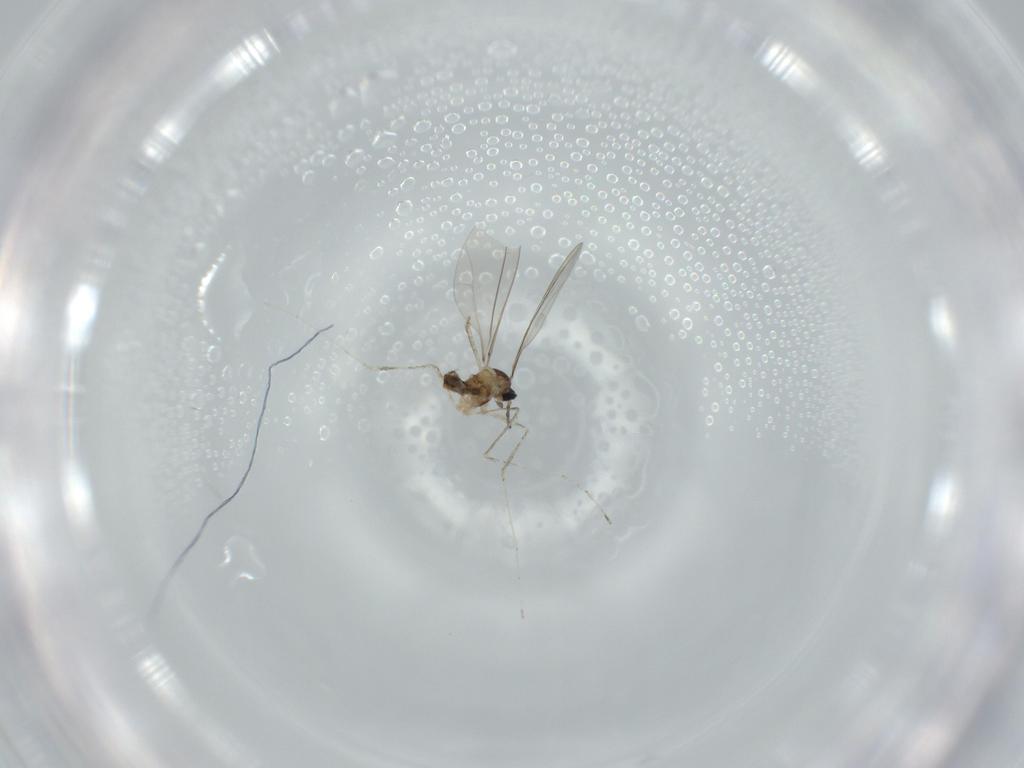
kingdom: Animalia
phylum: Arthropoda
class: Insecta
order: Diptera
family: Cecidomyiidae
